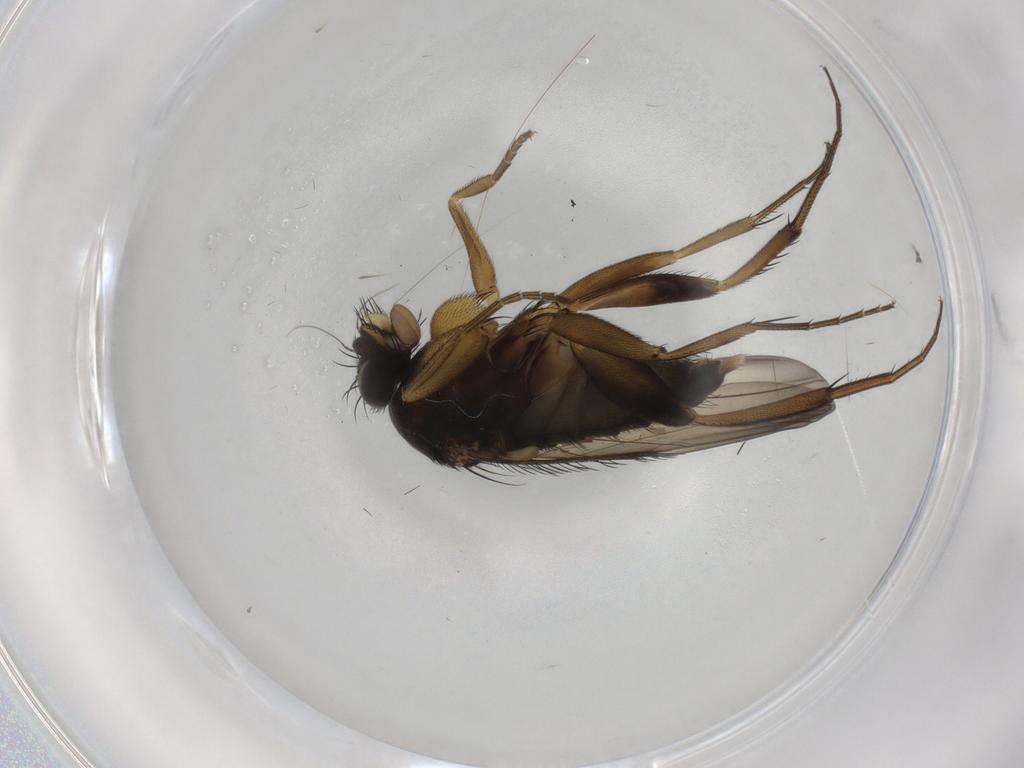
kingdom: Animalia
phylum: Arthropoda
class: Insecta
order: Diptera
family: Phoridae
